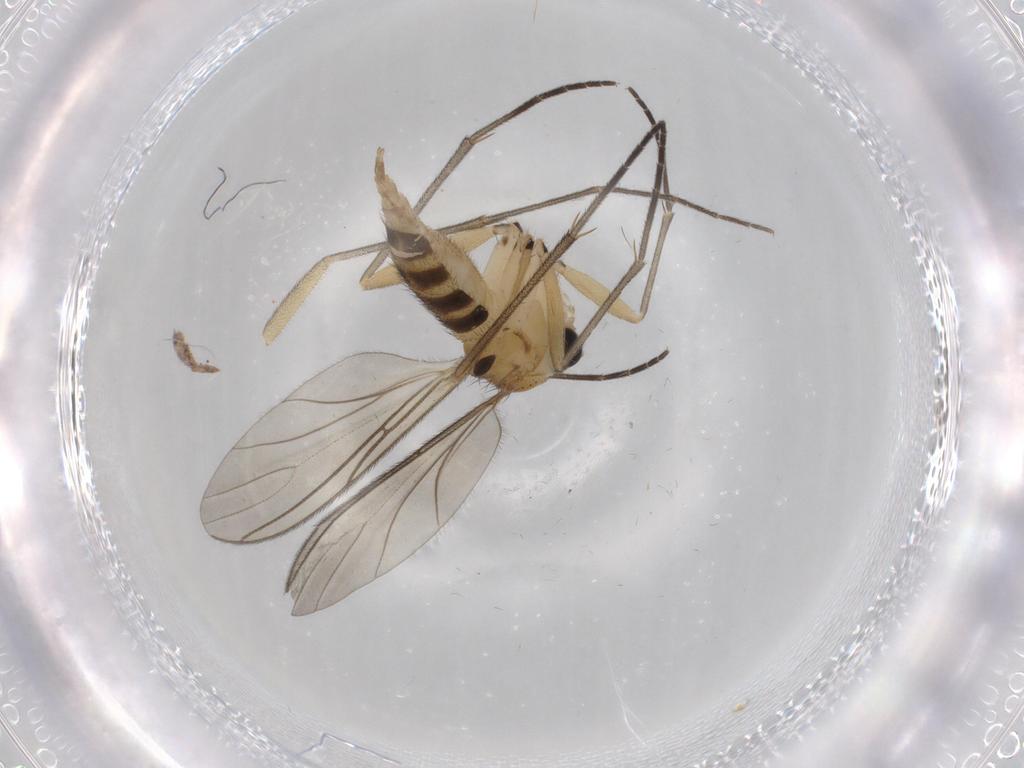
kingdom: Animalia
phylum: Arthropoda
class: Insecta
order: Diptera
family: Sciaridae
